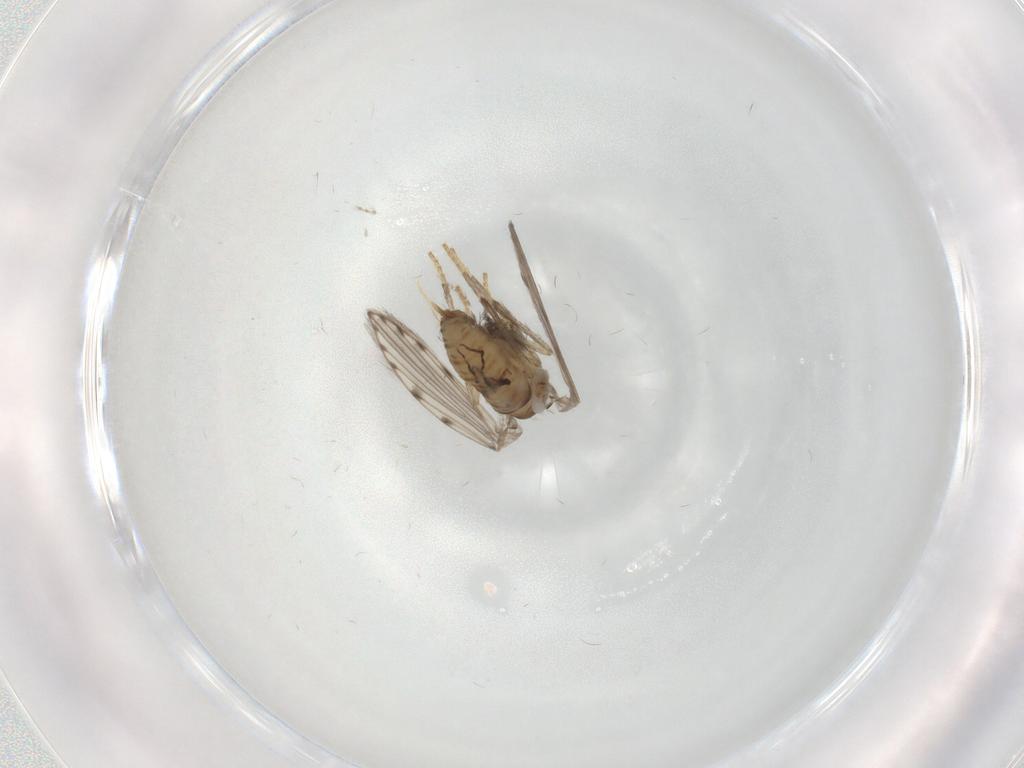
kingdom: Animalia
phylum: Arthropoda
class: Insecta
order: Diptera
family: Psychodidae
